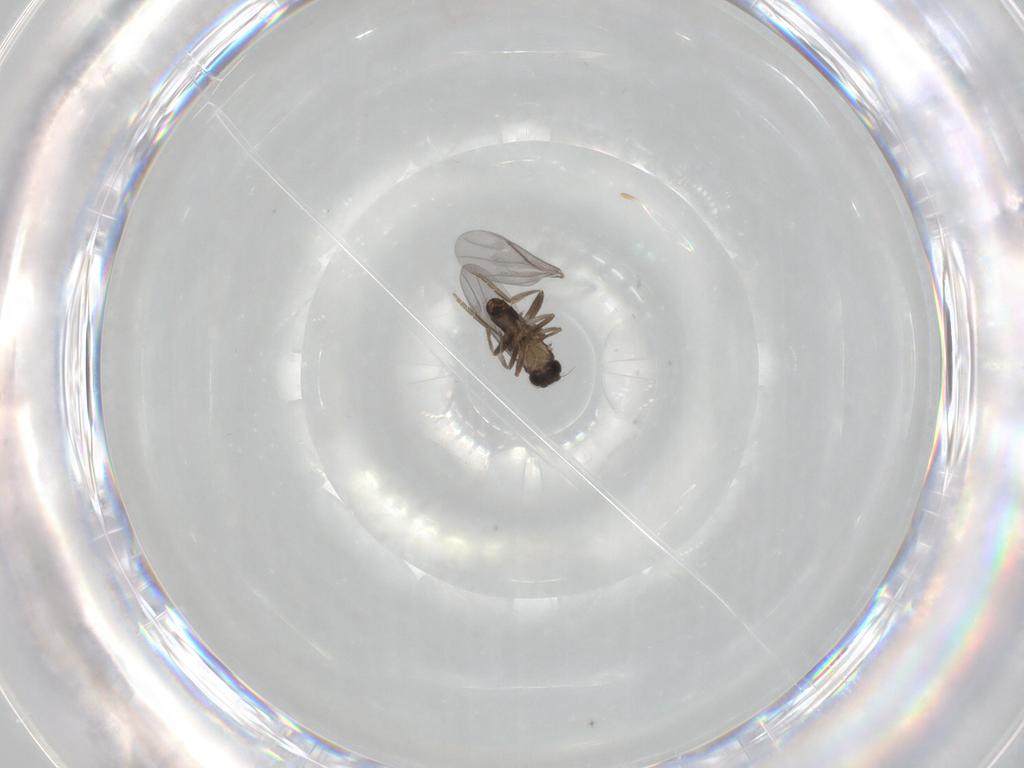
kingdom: Animalia
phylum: Arthropoda
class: Insecta
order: Diptera
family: Phoridae
